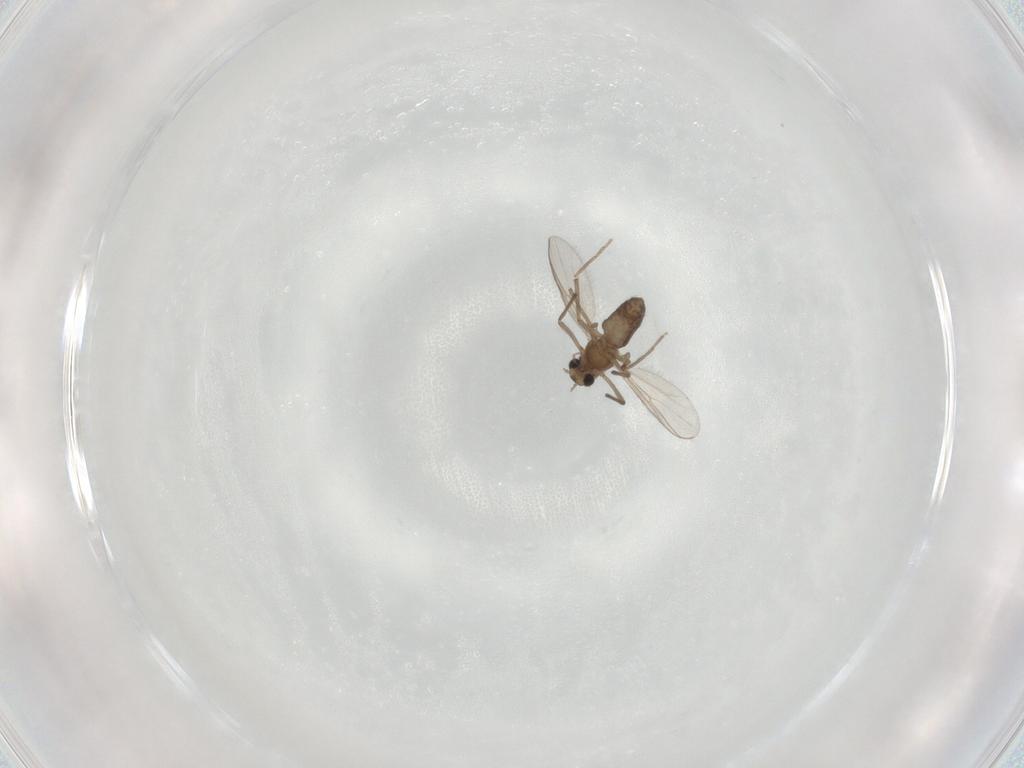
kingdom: Animalia
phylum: Arthropoda
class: Insecta
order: Diptera
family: Chironomidae
